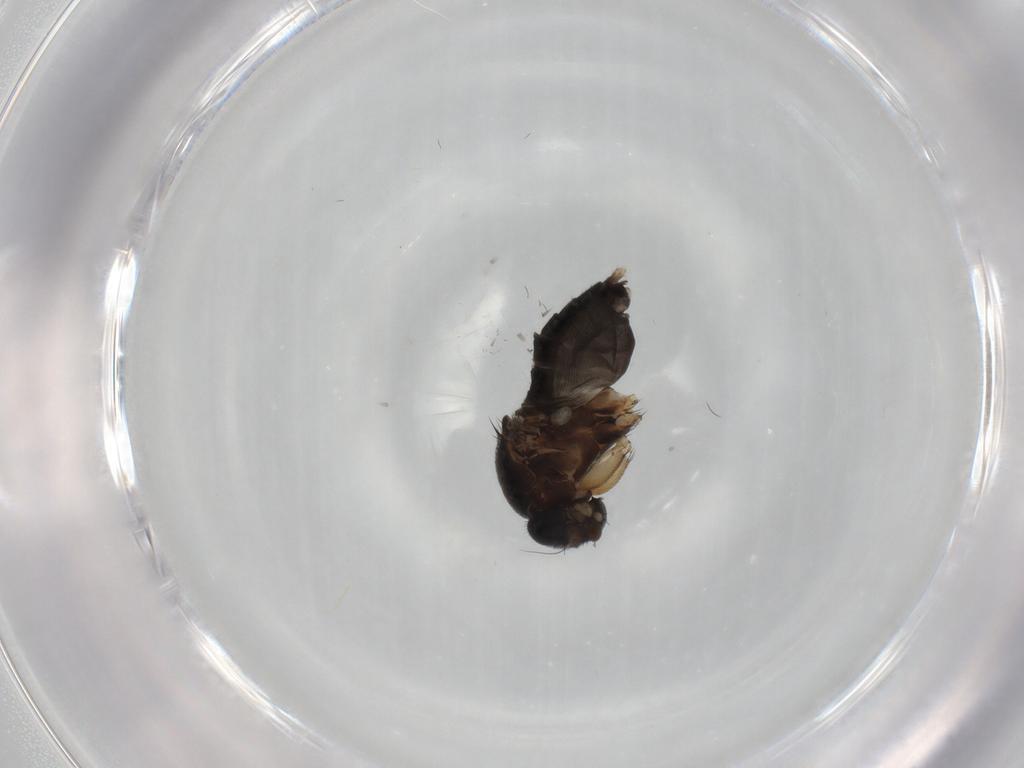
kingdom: Animalia
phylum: Arthropoda
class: Insecta
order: Diptera
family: Phoridae
